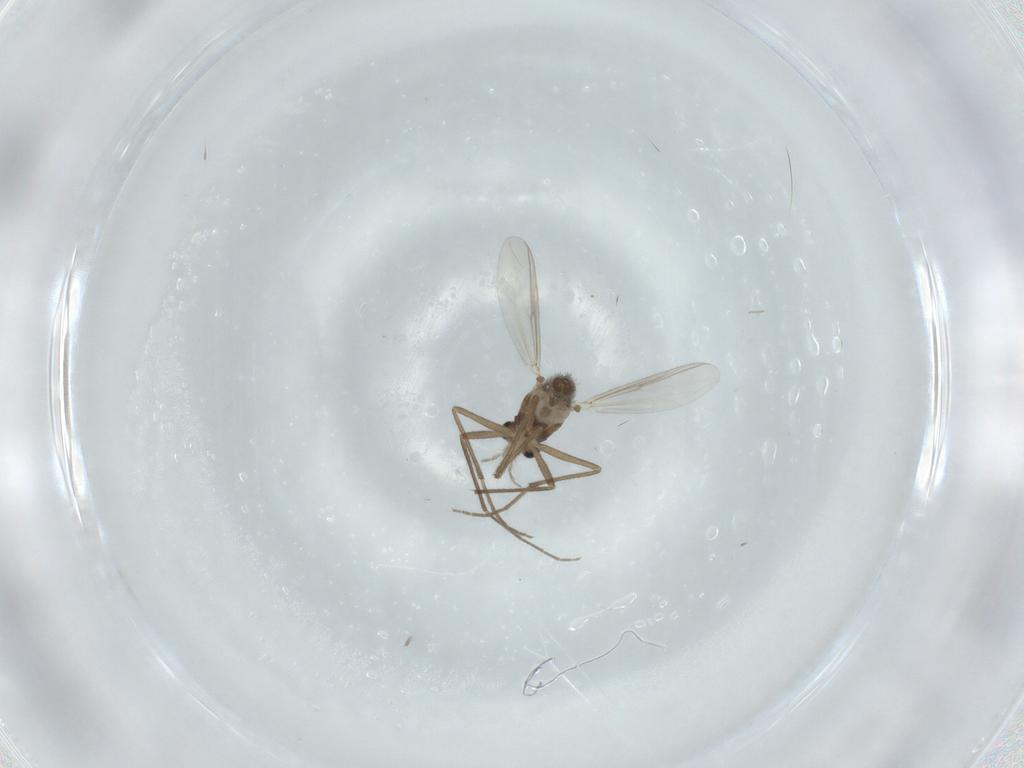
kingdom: Animalia
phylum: Arthropoda
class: Insecta
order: Diptera
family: Chironomidae
